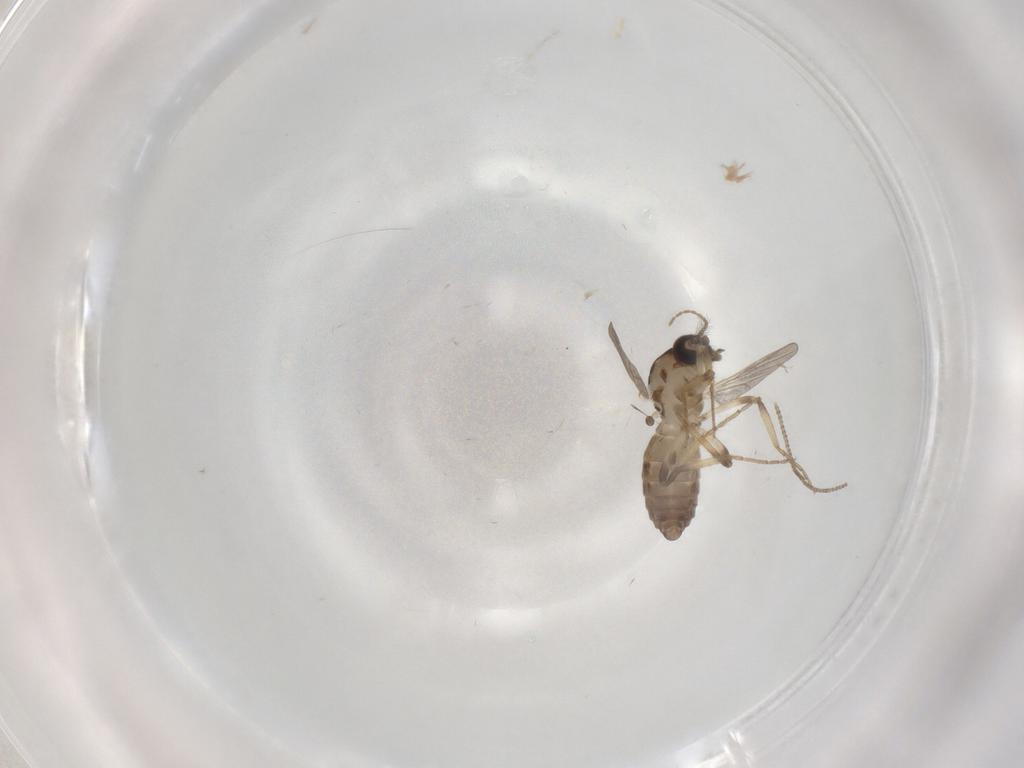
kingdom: Animalia
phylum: Arthropoda
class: Insecta
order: Diptera
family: Ceratopogonidae
